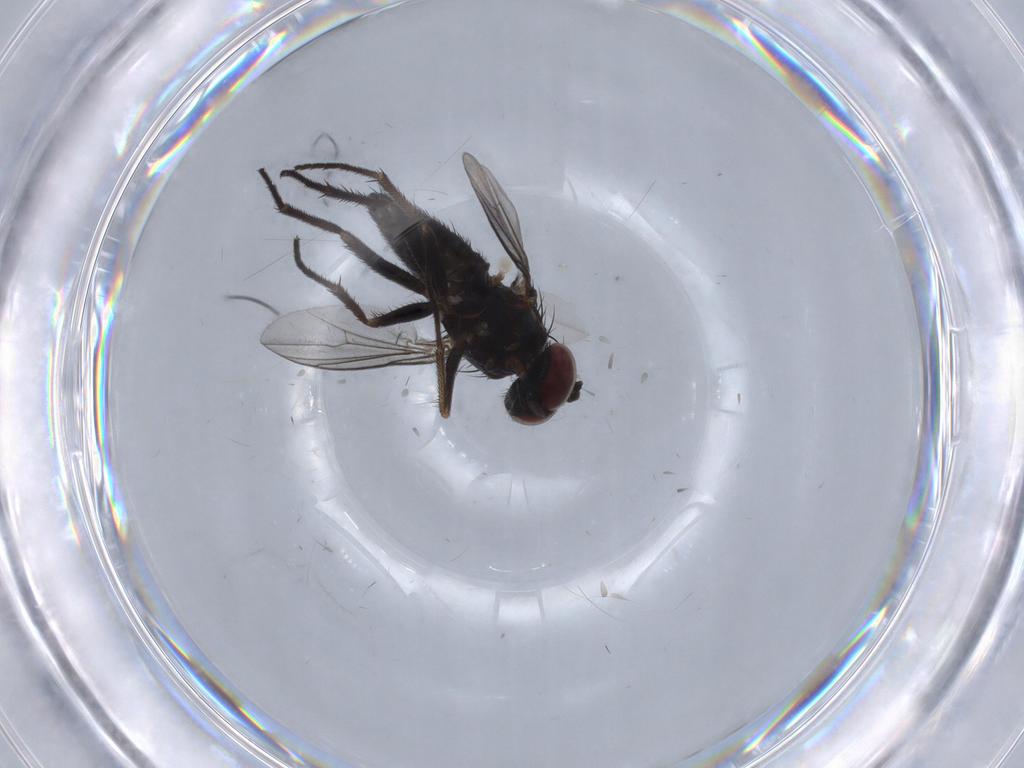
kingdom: Animalia
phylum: Arthropoda
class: Insecta
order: Diptera
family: Dolichopodidae
